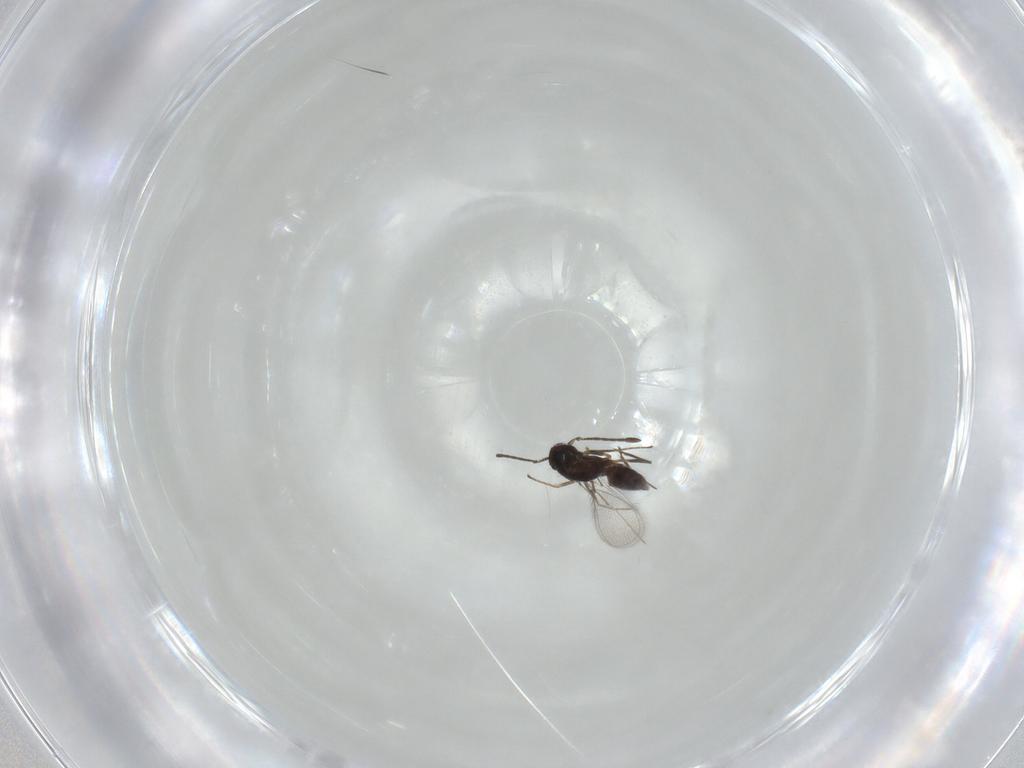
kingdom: Animalia
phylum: Arthropoda
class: Insecta
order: Hymenoptera
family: Mymaridae
